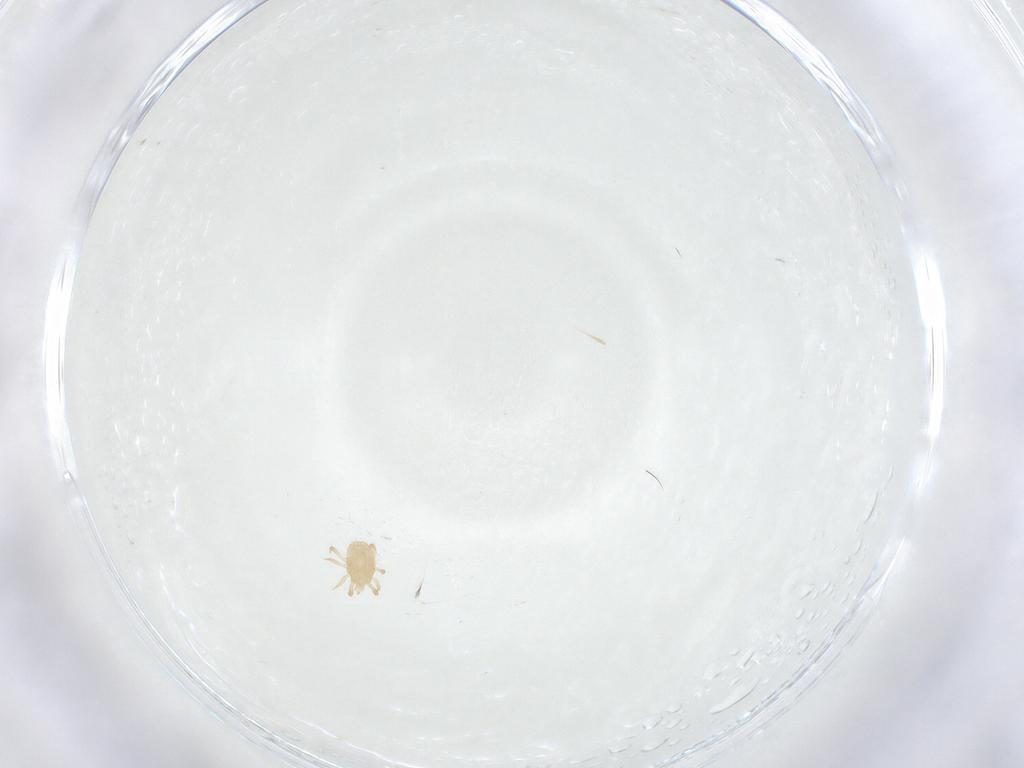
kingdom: Animalia
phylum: Arthropoda
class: Arachnida
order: Mesostigmata
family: Ameroseiidae
